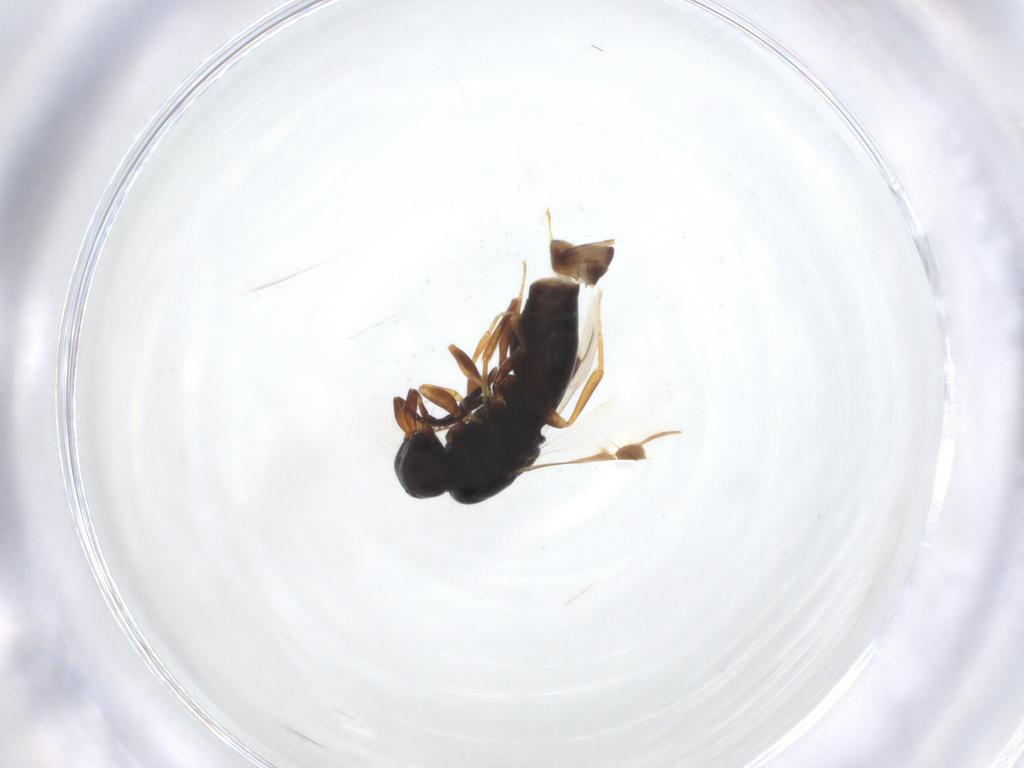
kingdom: Animalia
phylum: Arthropoda
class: Insecta
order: Hymenoptera
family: Megaspilidae
